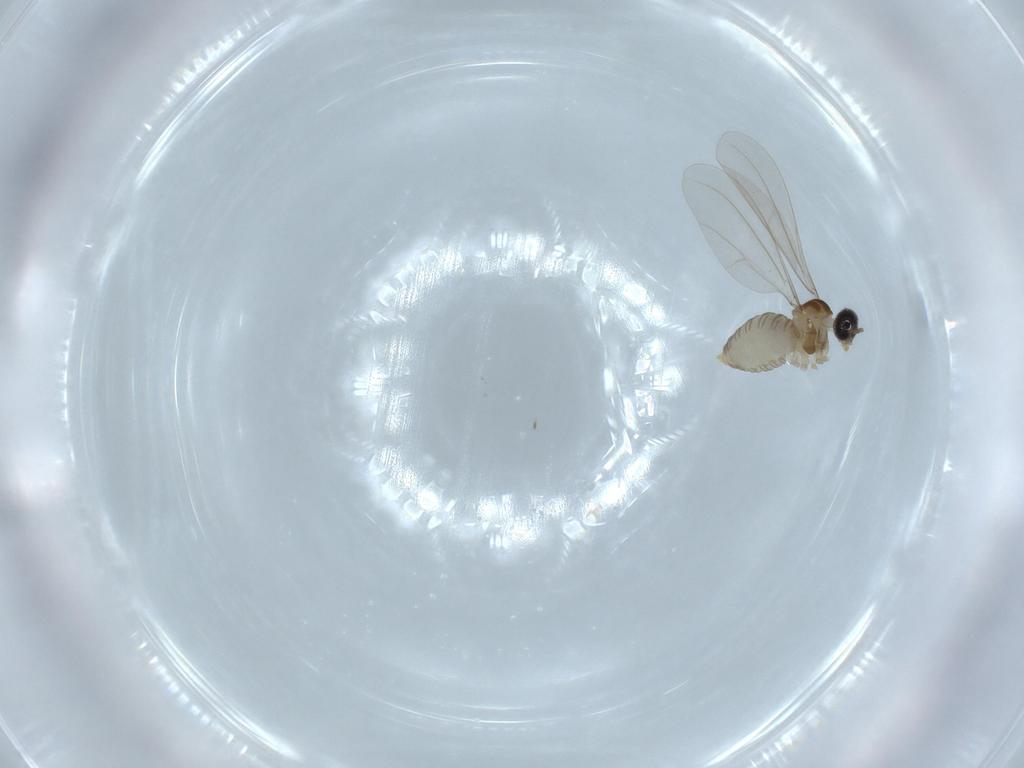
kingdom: Animalia
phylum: Arthropoda
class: Insecta
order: Diptera
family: Cecidomyiidae
